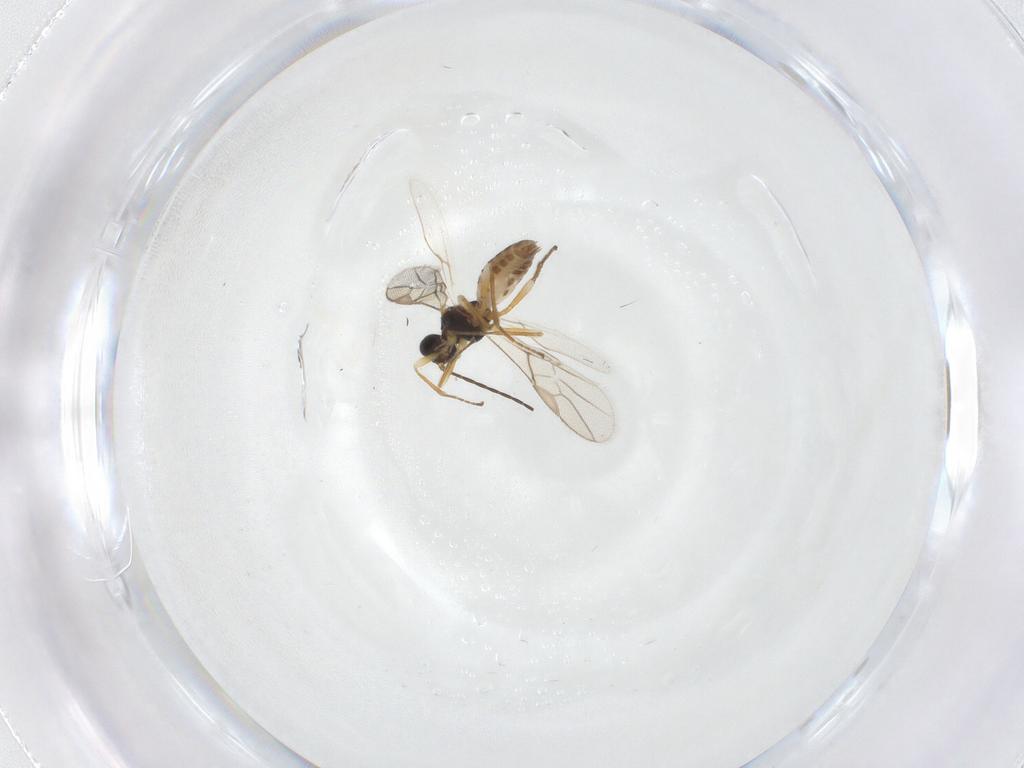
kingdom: Animalia
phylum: Arthropoda
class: Insecta
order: Hymenoptera
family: Braconidae
